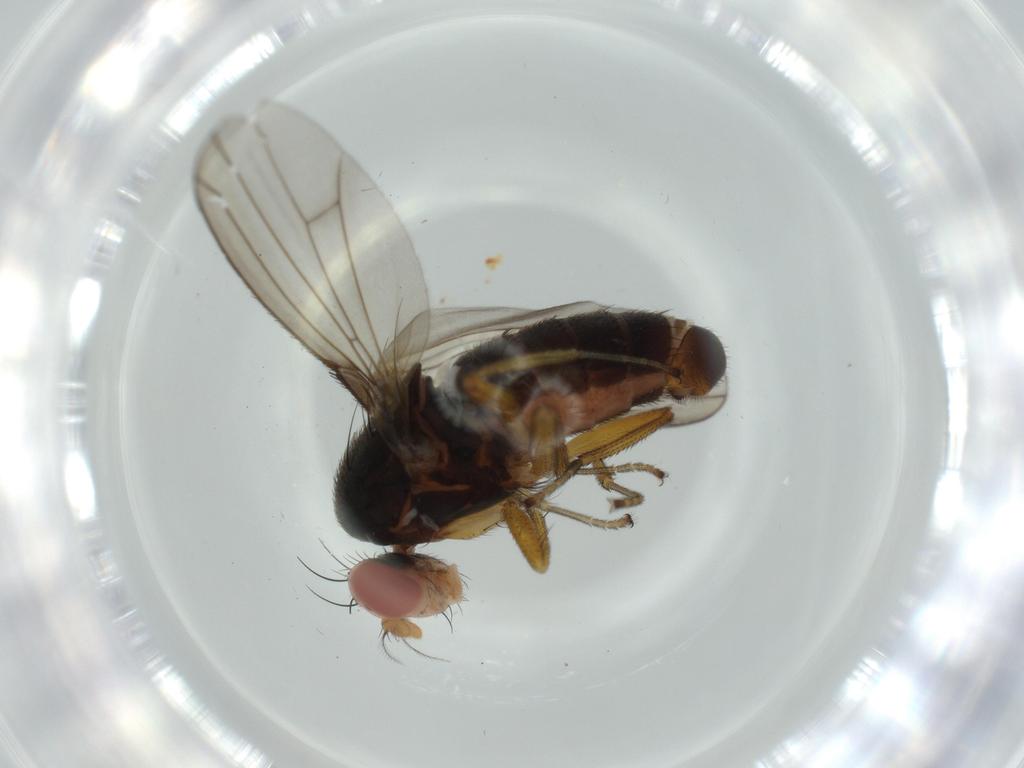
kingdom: Animalia
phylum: Arthropoda
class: Insecta
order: Diptera
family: Diastatidae
